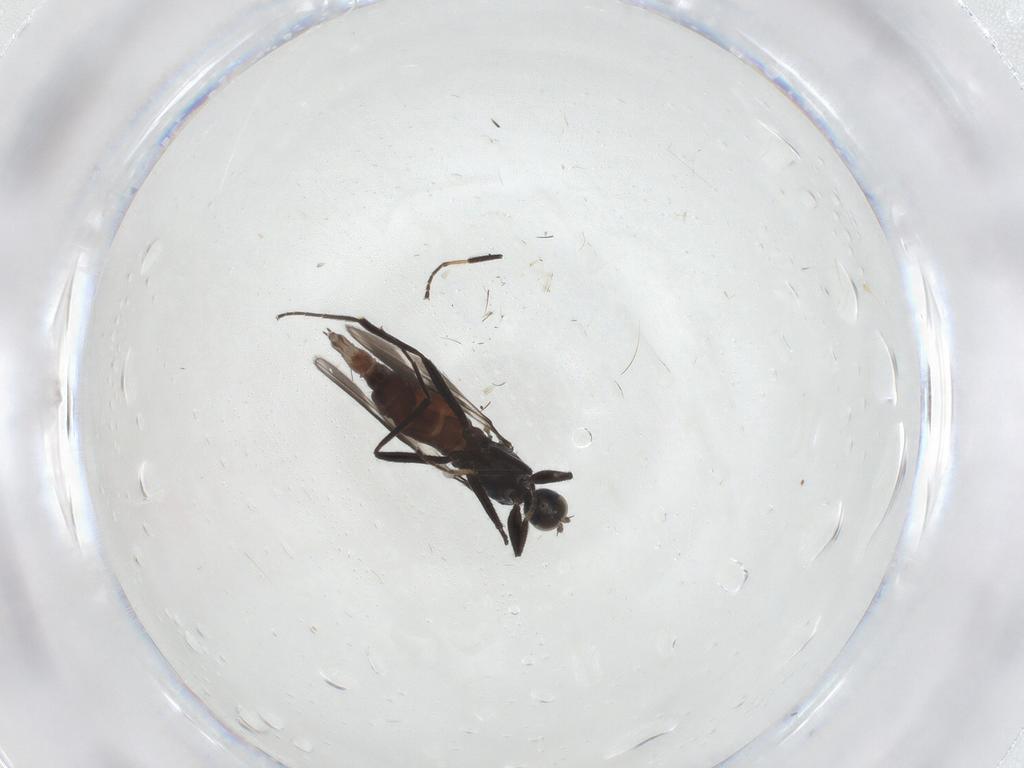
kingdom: Animalia
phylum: Arthropoda
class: Insecta
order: Diptera
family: Hybotidae
